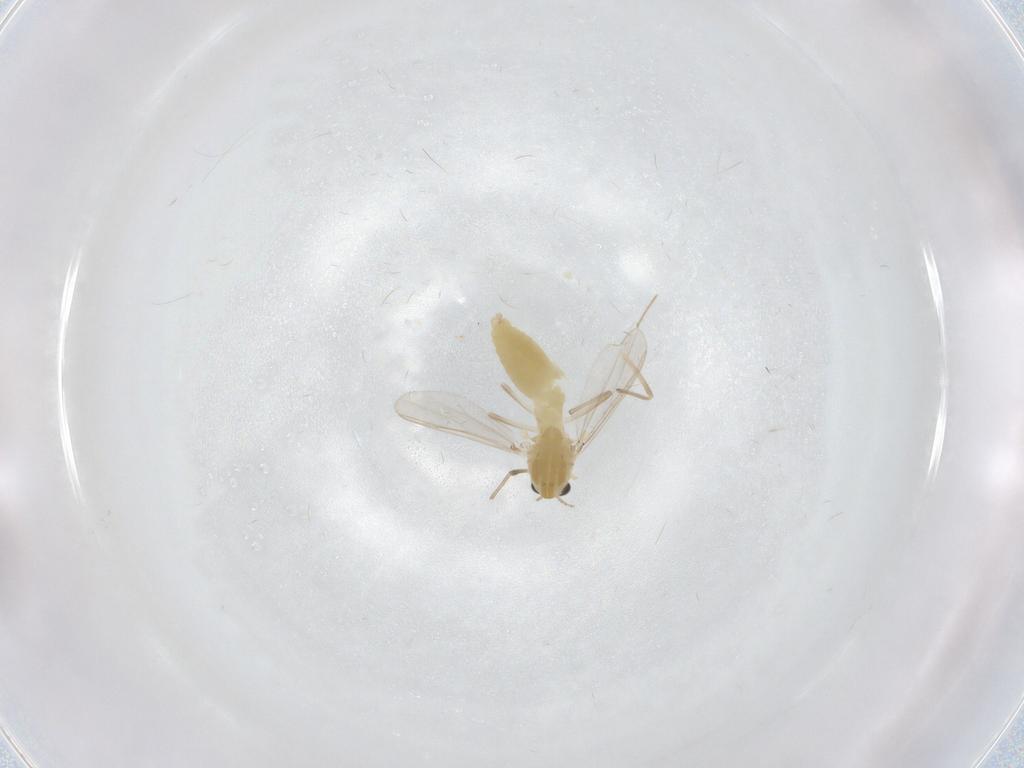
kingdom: Animalia
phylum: Arthropoda
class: Insecta
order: Diptera
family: Chironomidae
